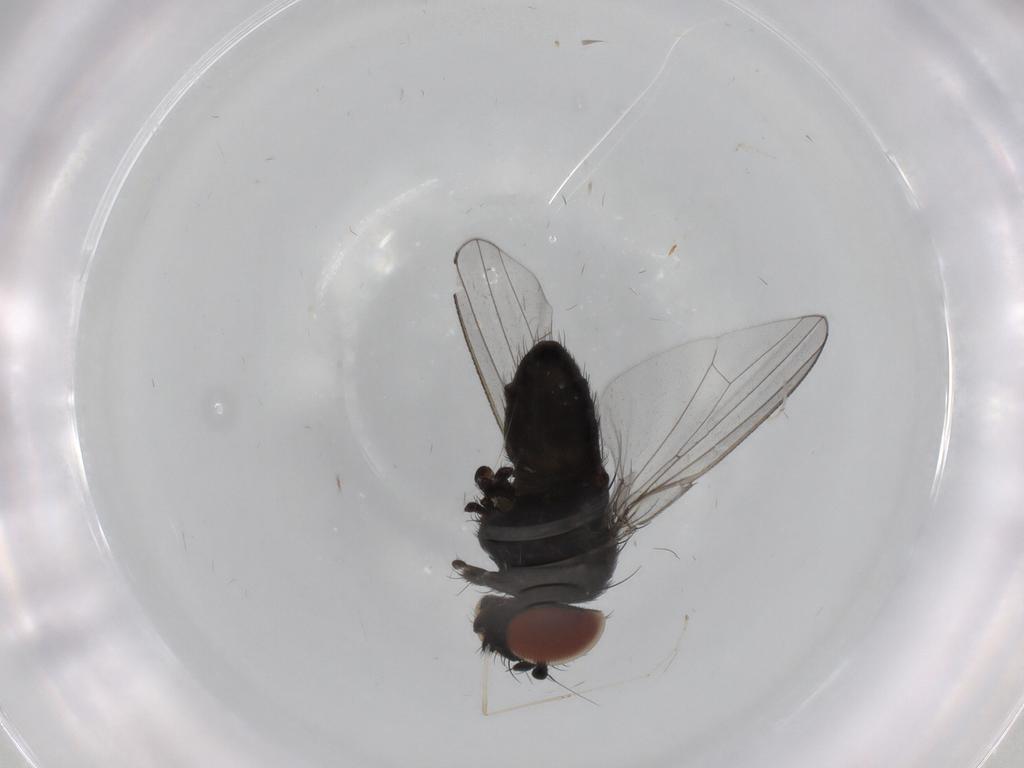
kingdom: Animalia
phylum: Arthropoda
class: Insecta
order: Diptera
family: Milichiidae
